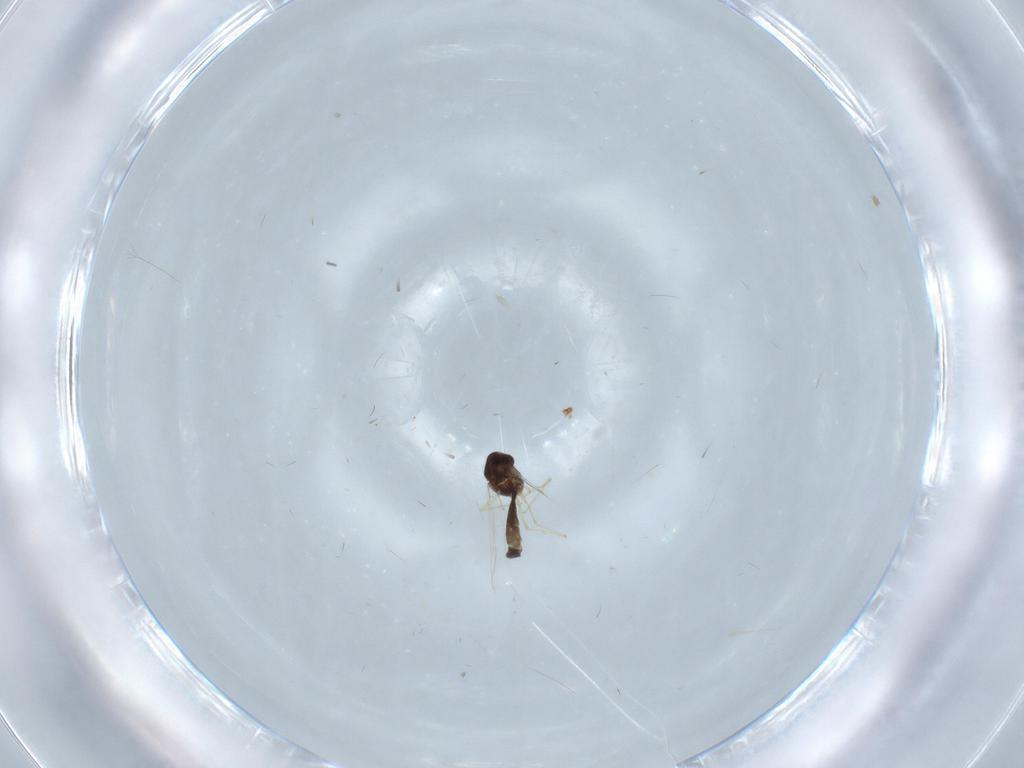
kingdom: Animalia
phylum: Arthropoda
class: Insecta
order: Diptera
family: Chironomidae
